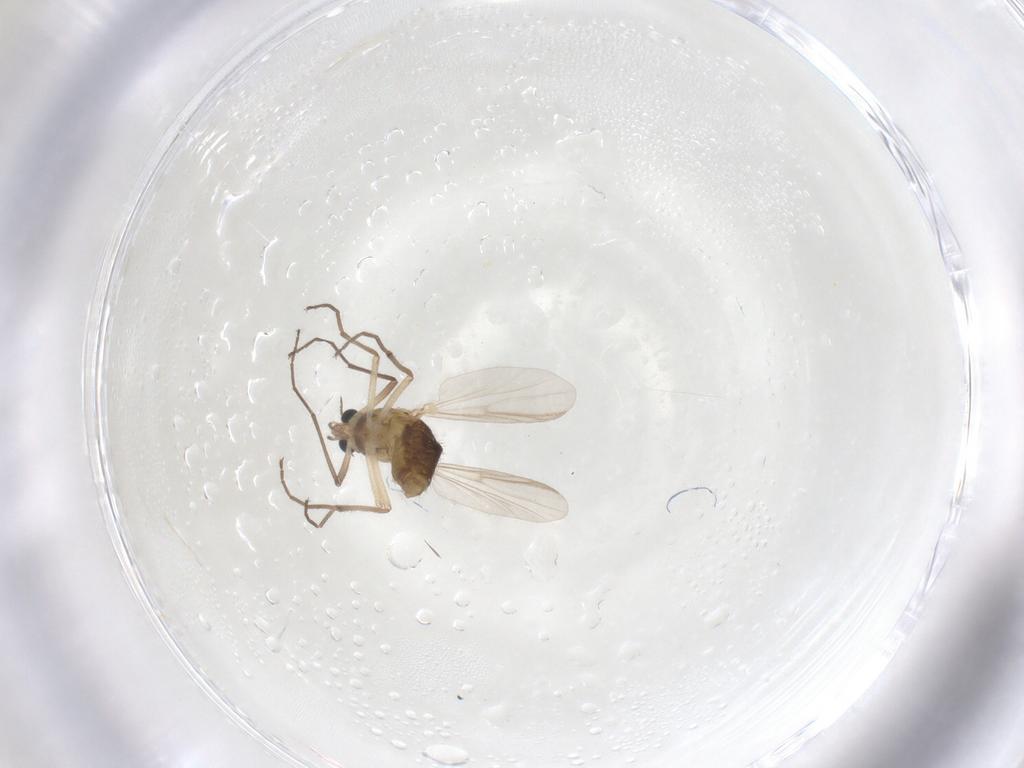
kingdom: Animalia
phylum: Arthropoda
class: Insecta
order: Diptera
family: Chironomidae
